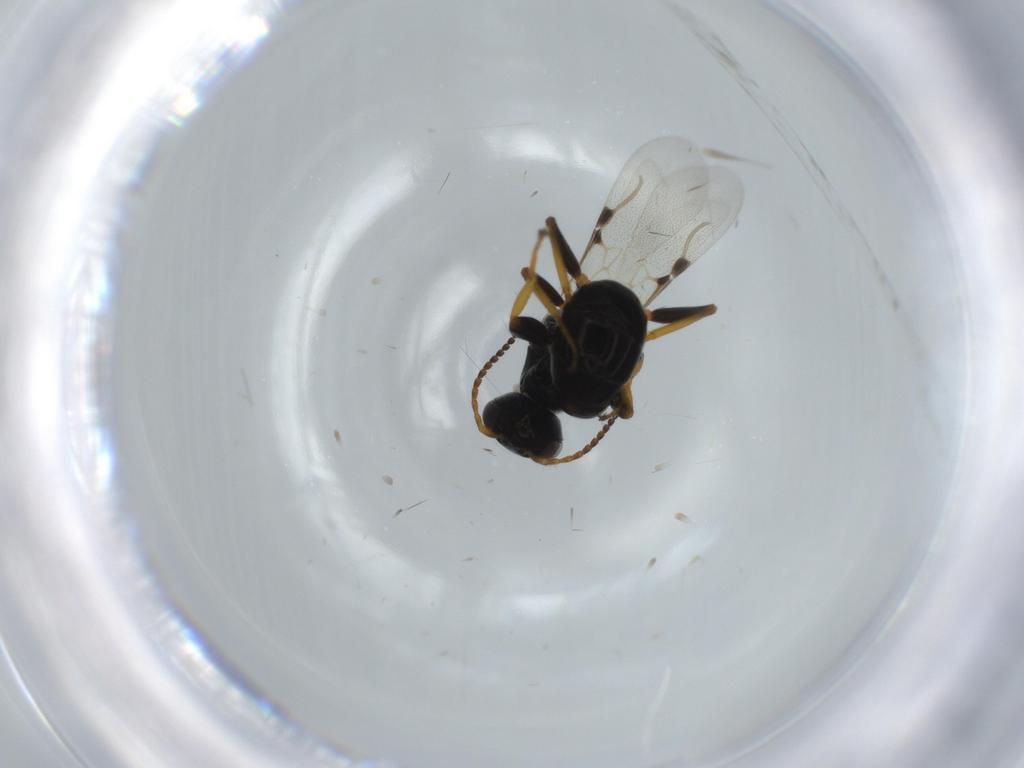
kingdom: Animalia
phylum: Arthropoda
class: Insecta
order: Hymenoptera
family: Bethylidae
